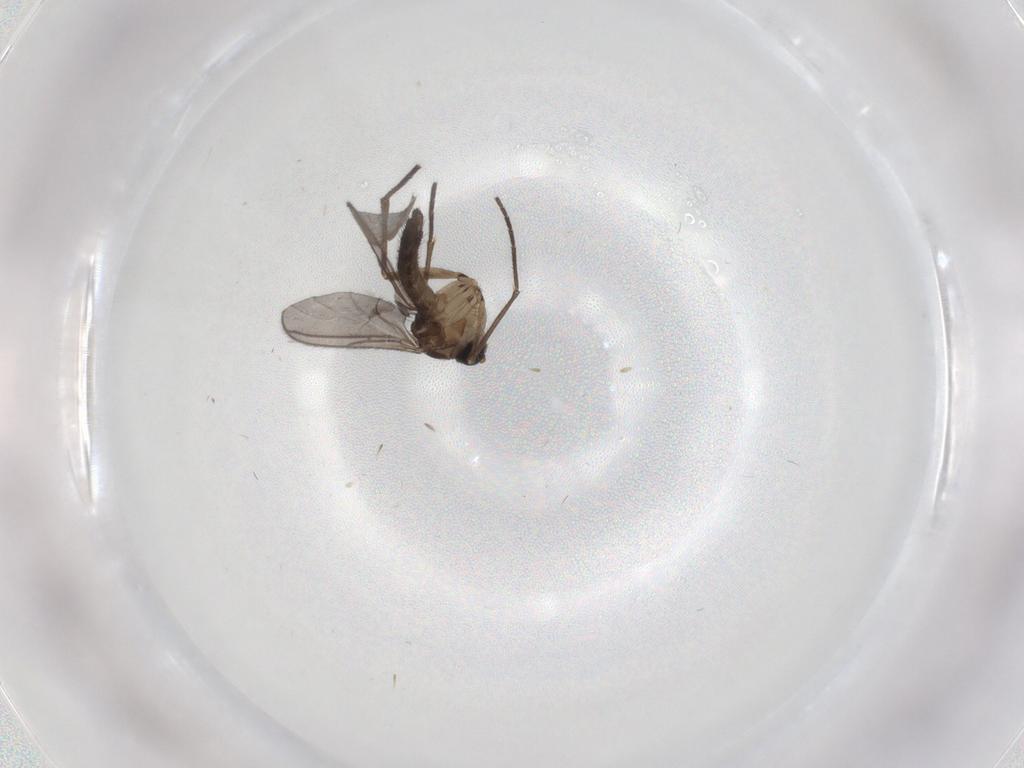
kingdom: Animalia
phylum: Arthropoda
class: Insecta
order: Diptera
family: Sciaridae
